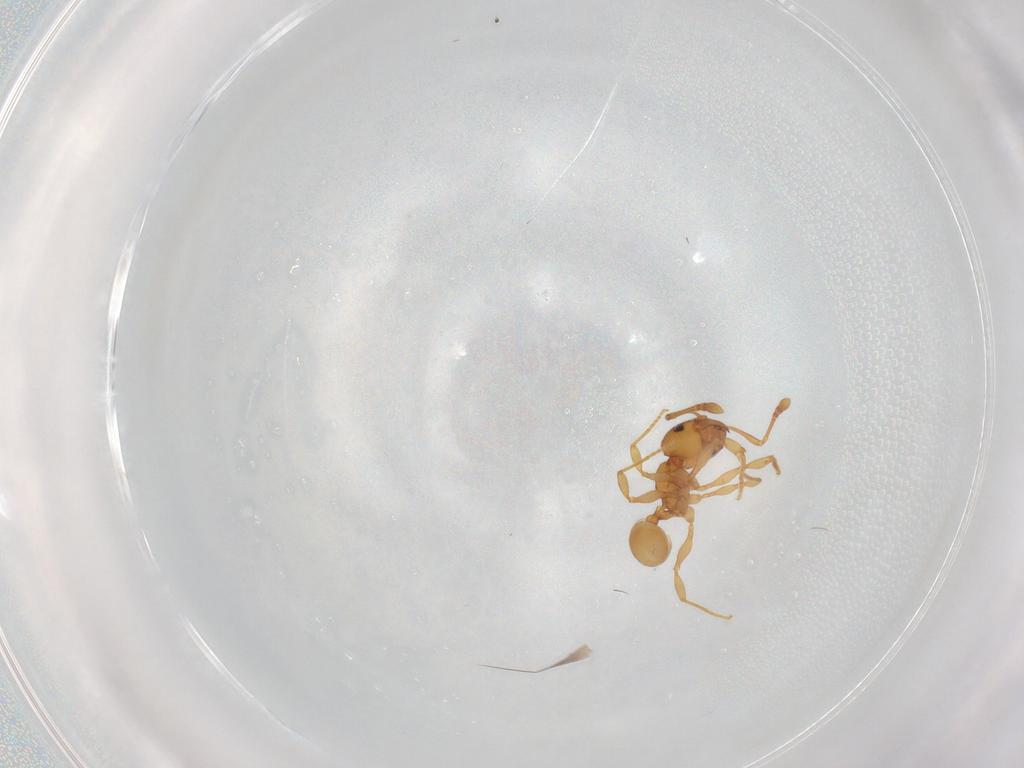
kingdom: Animalia
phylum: Arthropoda
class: Insecta
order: Hymenoptera
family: Formicidae
